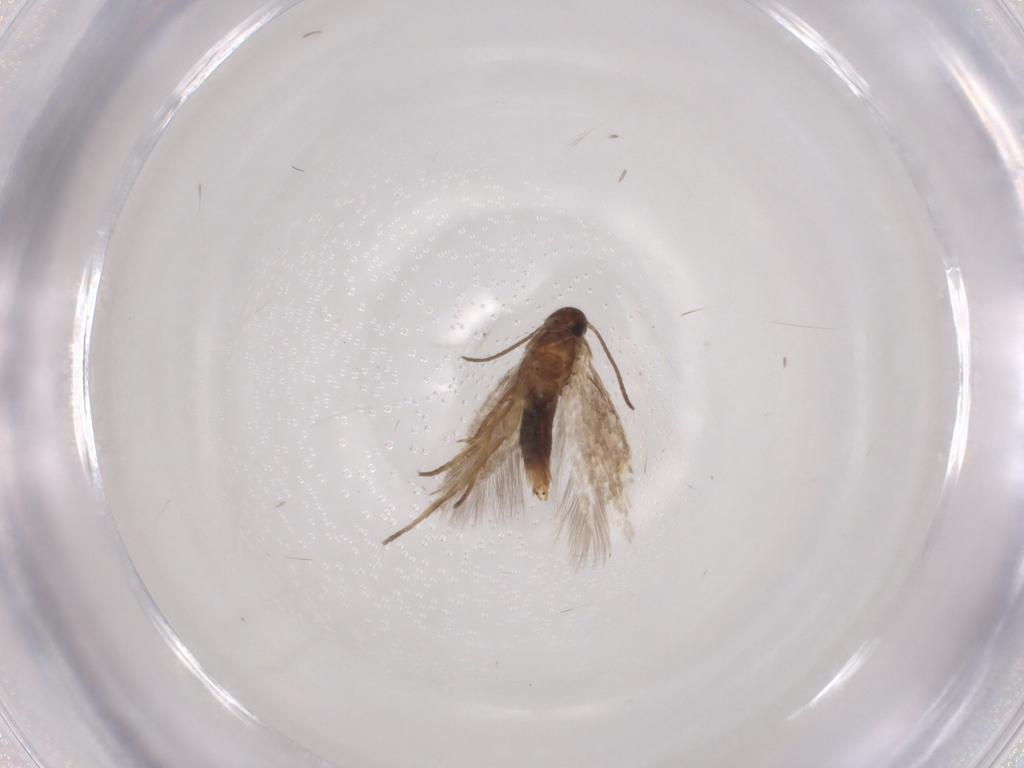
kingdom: Animalia
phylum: Arthropoda
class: Insecta
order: Lepidoptera
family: Heliozelidae
